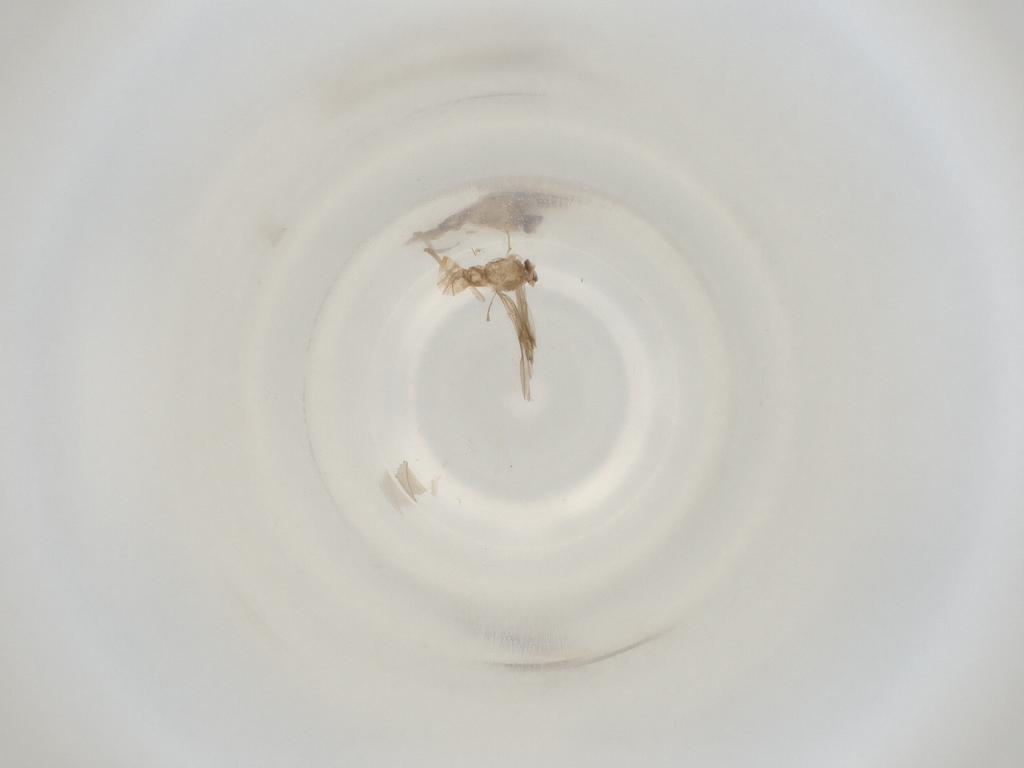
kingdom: Animalia
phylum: Arthropoda
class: Insecta
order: Diptera
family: Cecidomyiidae
